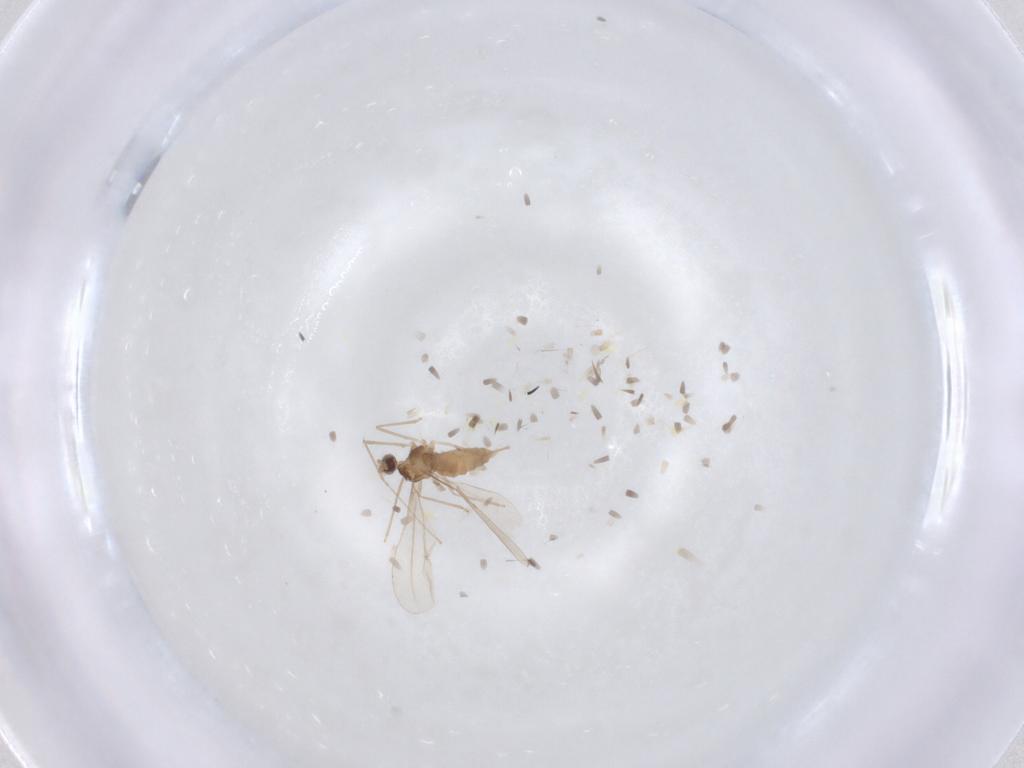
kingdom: Animalia
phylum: Arthropoda
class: Insecta
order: Diptera
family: Cecidomyiidae
